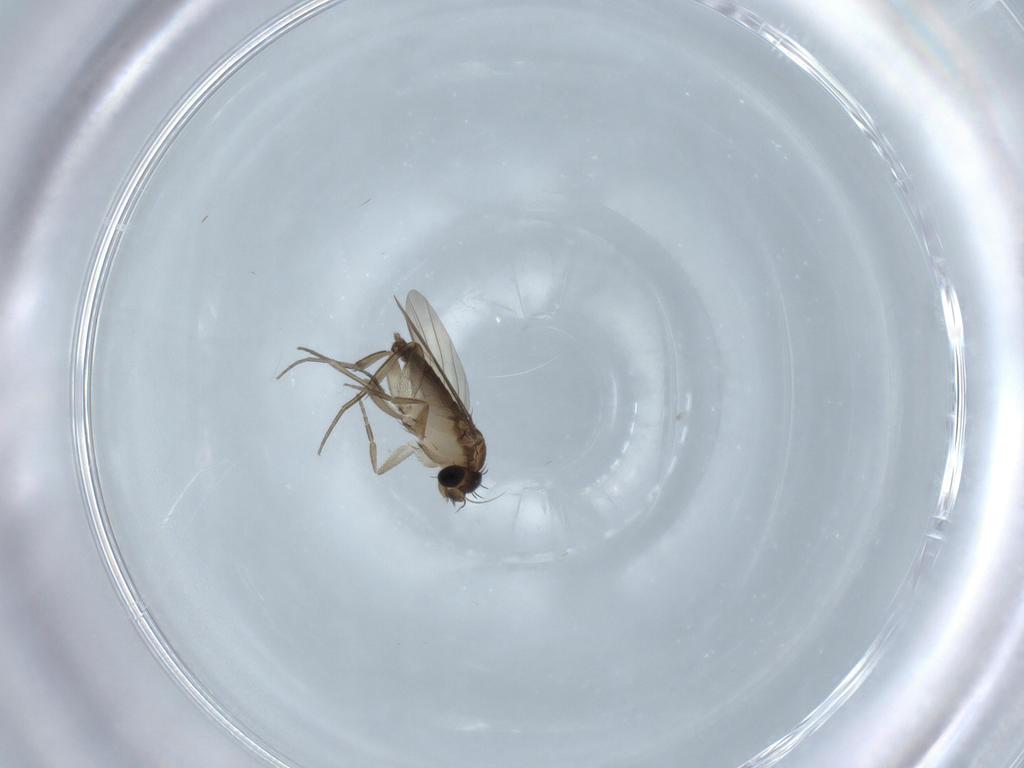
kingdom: Animalia
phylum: Arthropoda
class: Insecta
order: Diptera
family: Phoridae
